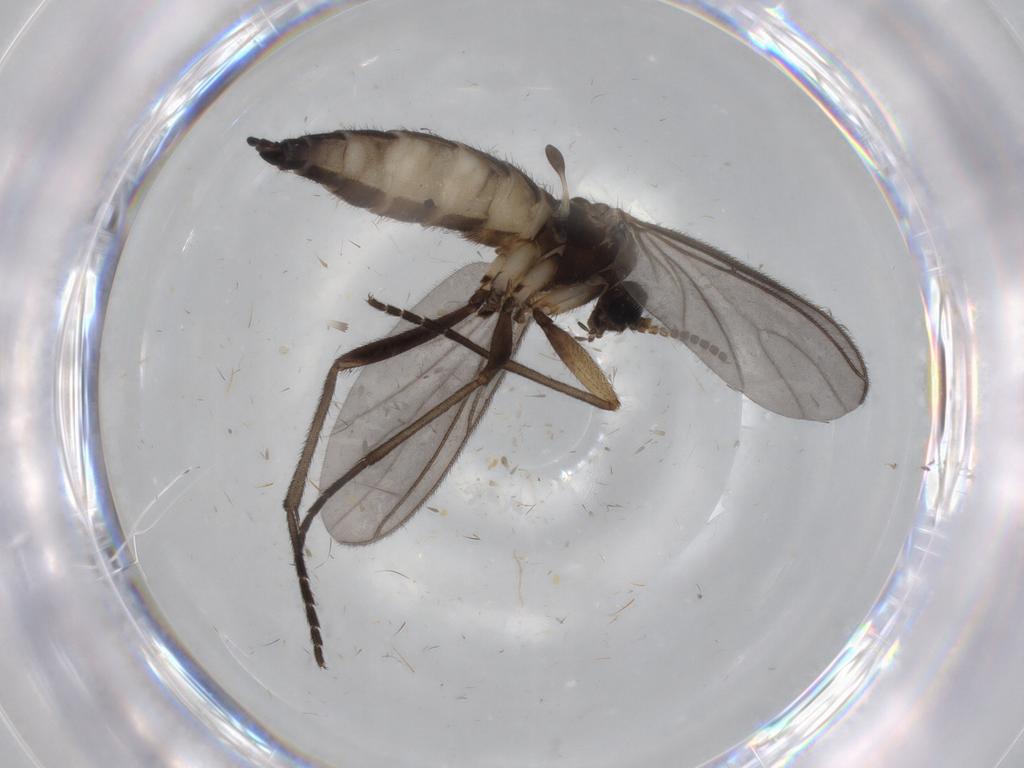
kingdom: Animalia
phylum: Arthropoda
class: Insecta
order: Diptera
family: Sciaridae
